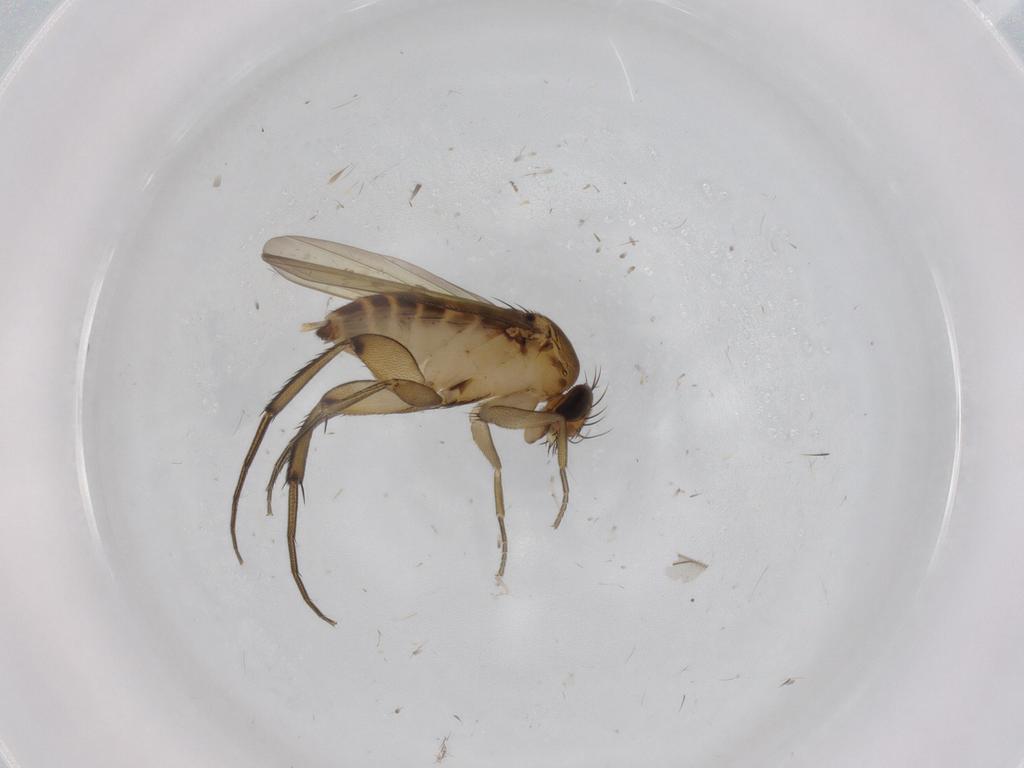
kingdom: Animalia
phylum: Arthropoda
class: Insecta
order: Diptera
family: Phoridae
